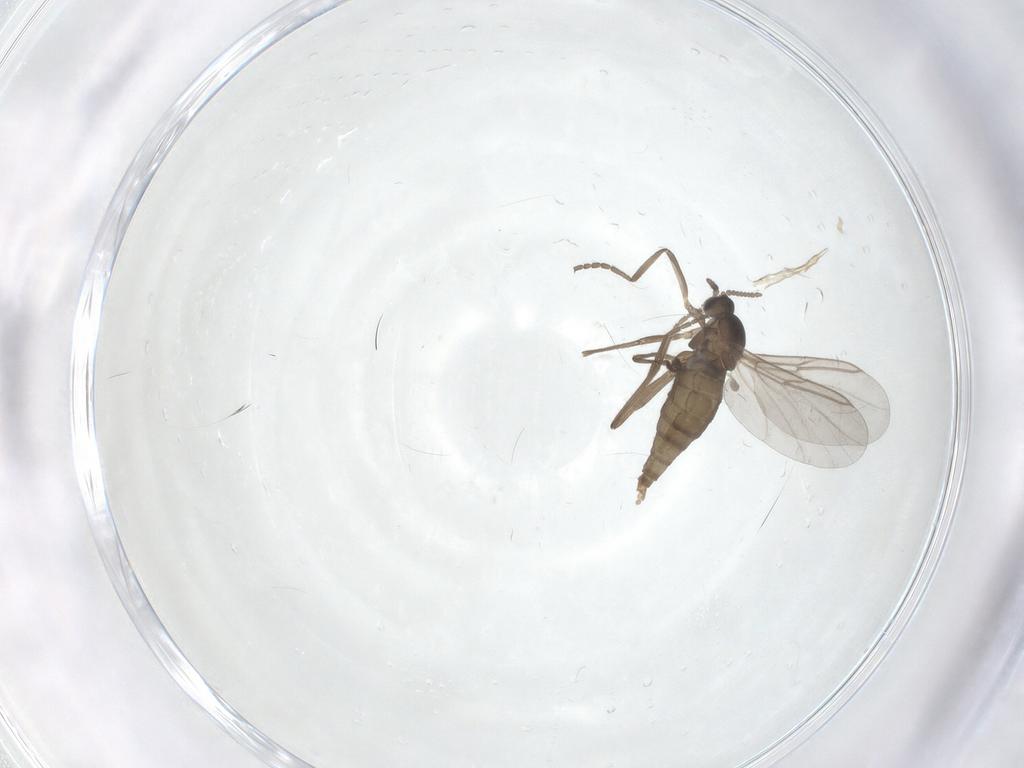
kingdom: Animalia
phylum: Arthropoda
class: Insecta
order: Diptera
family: Cecidomyiidae
